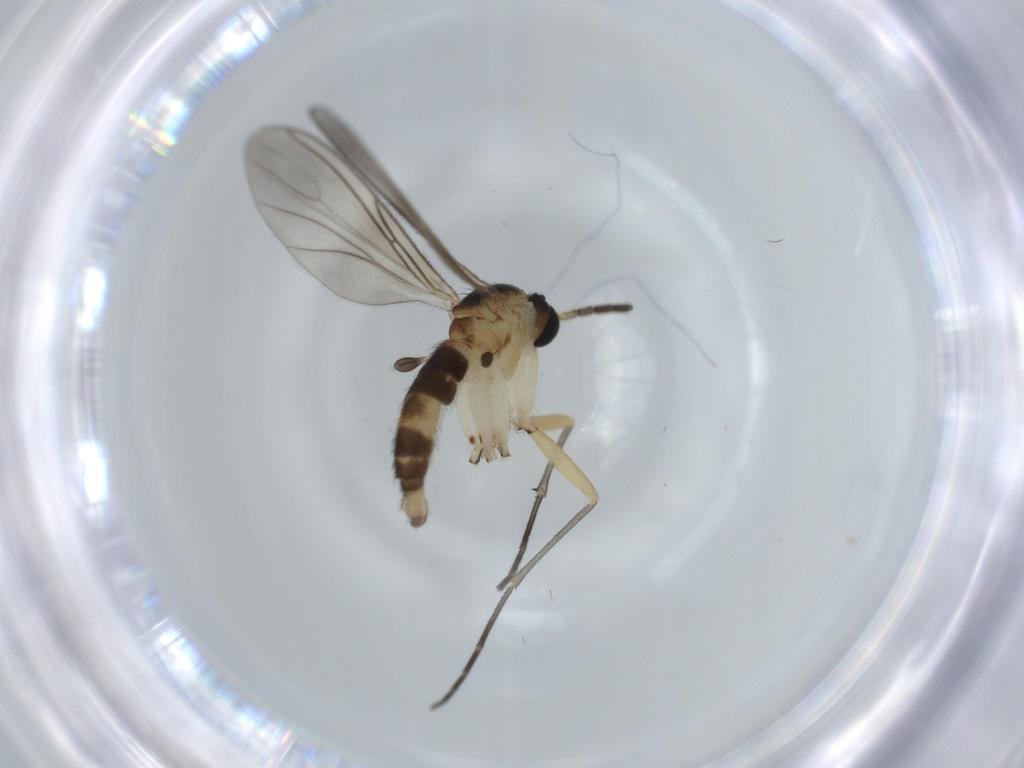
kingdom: Animalia
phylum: Arthropoda
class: Insecta
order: Diptera
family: Sciaridae
